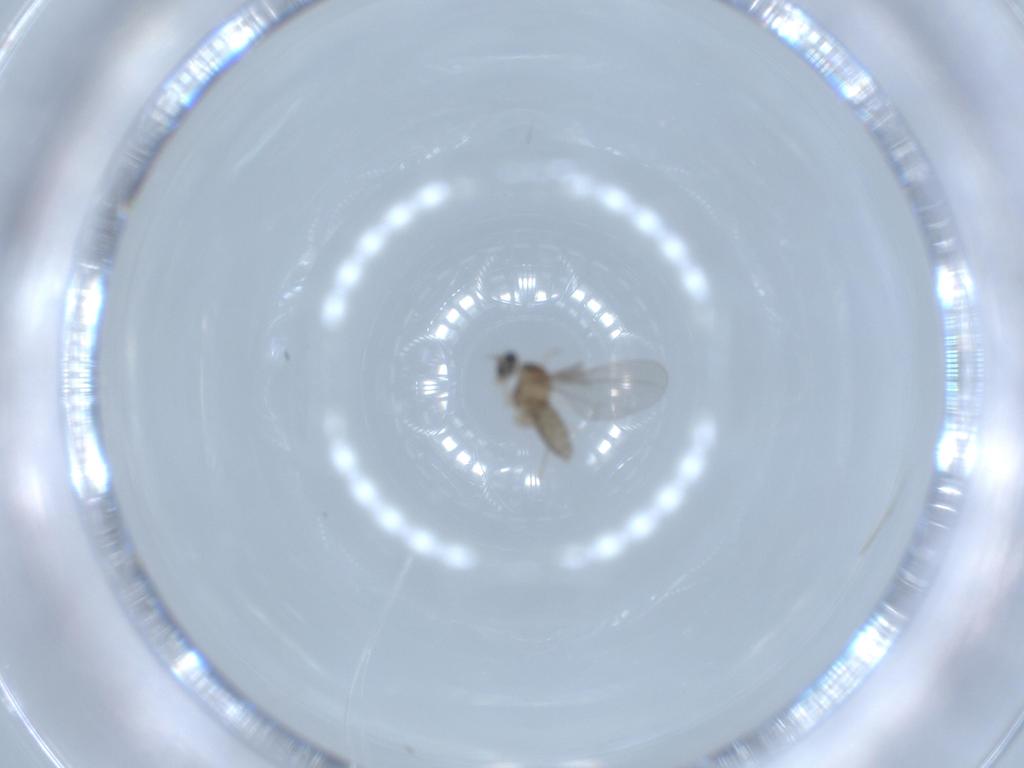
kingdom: Animalia
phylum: Arthropoda
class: Insecta
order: Diptera
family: Cecidomyiidae
